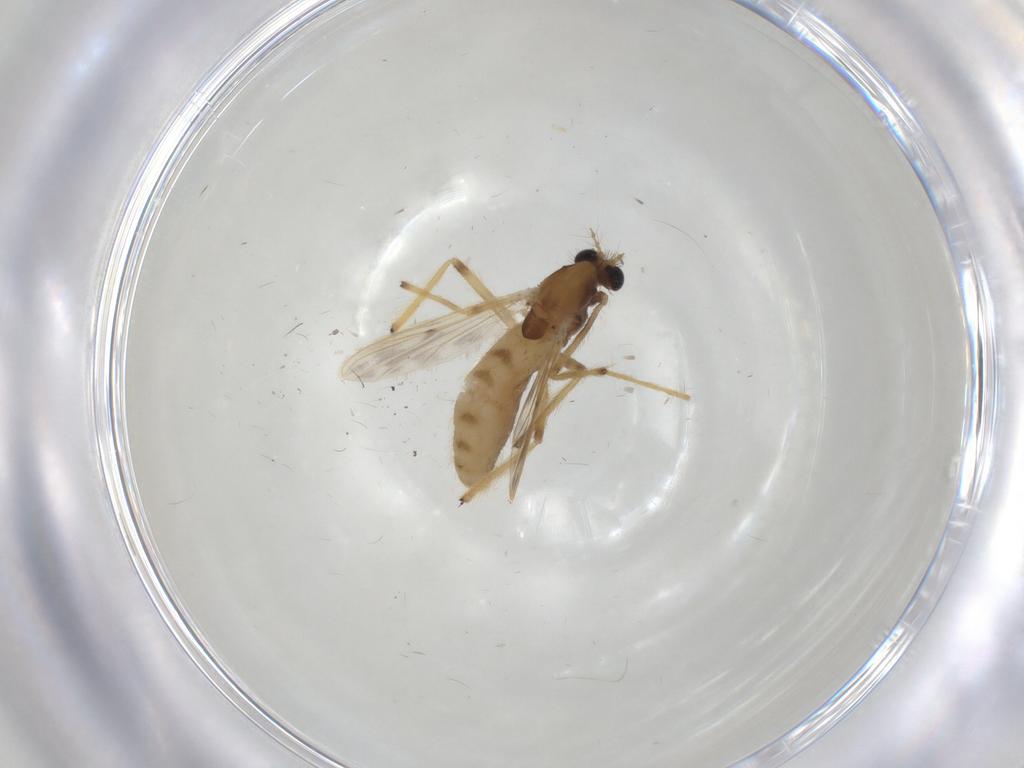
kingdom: Animalia
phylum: Arthropoda
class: Insecta
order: Diptera
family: Chironomidae
